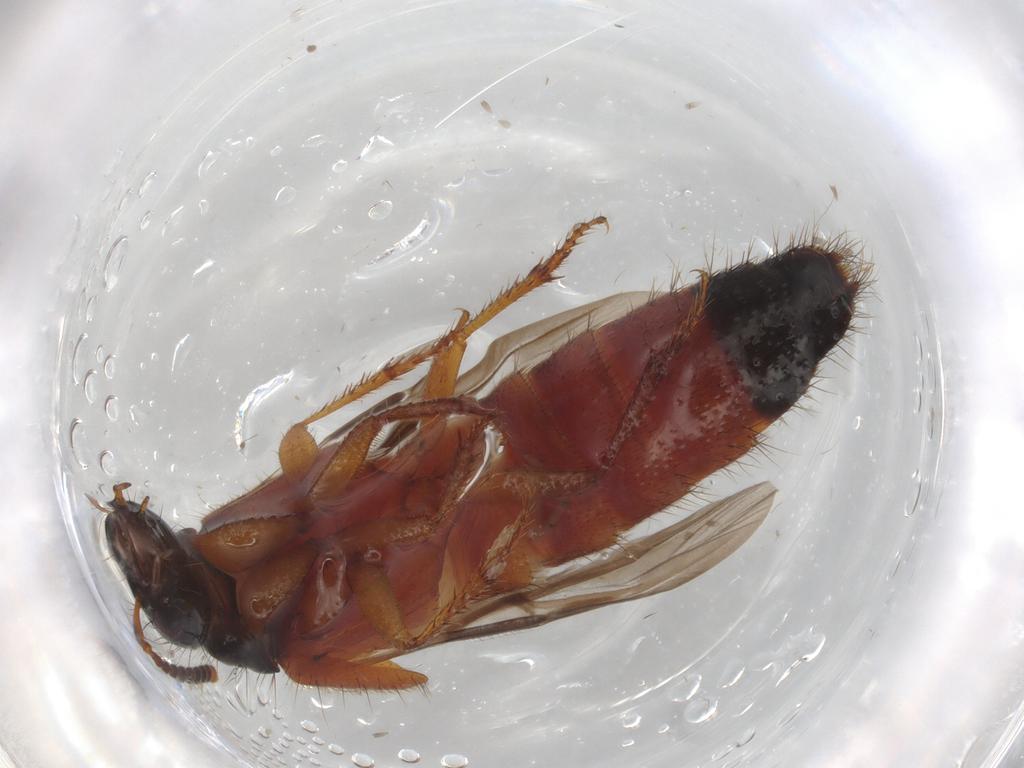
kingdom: Animalia
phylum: Arthropoda
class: Insecta
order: Coleoptera
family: Staphylinidae
